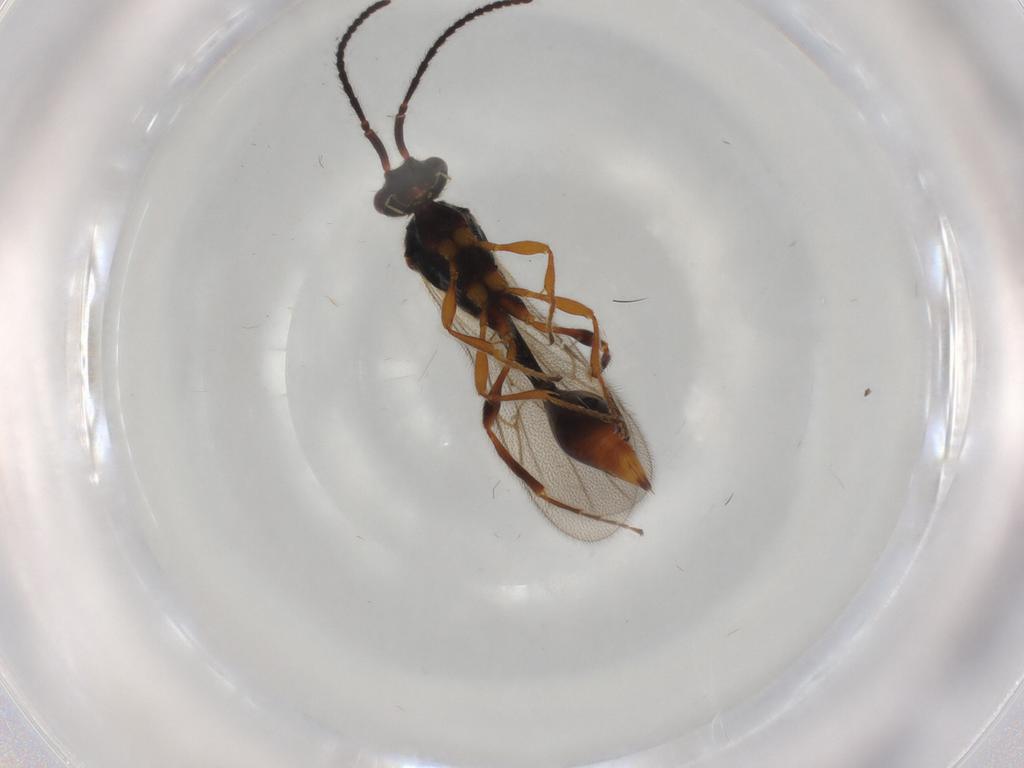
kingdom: Animalia
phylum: Arthropoda
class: Insecta
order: Hymenoptera
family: Diapriidae
